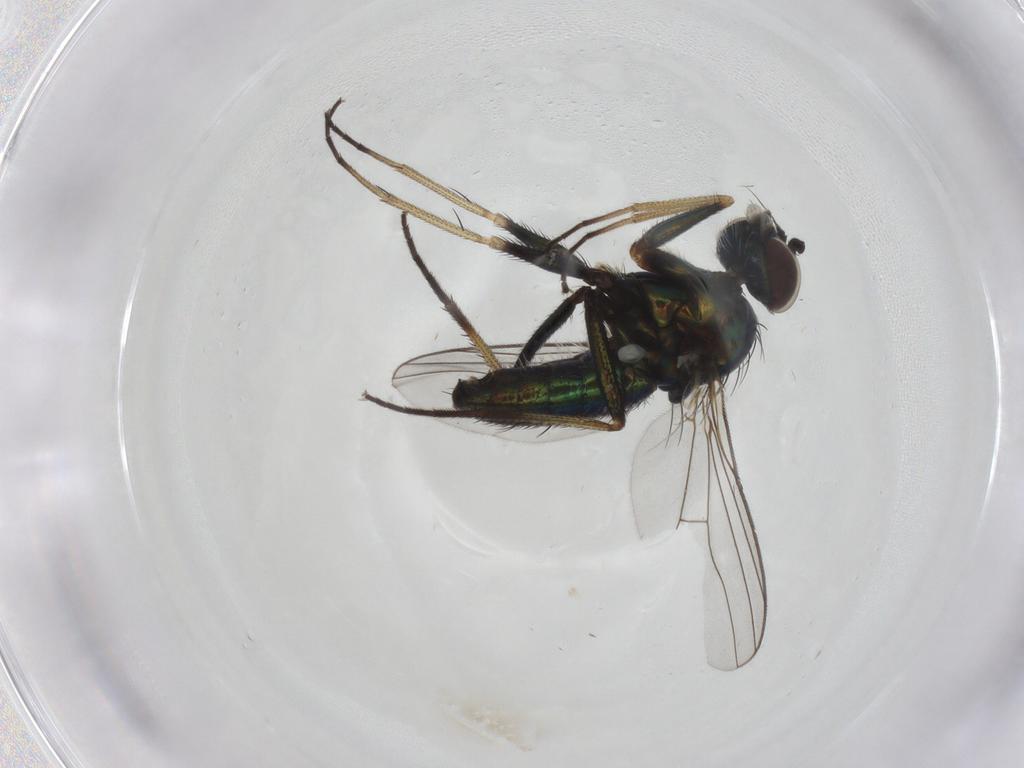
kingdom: Animalia
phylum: Arthropoda
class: Insecta
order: Diptera
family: Dolichopodidae
